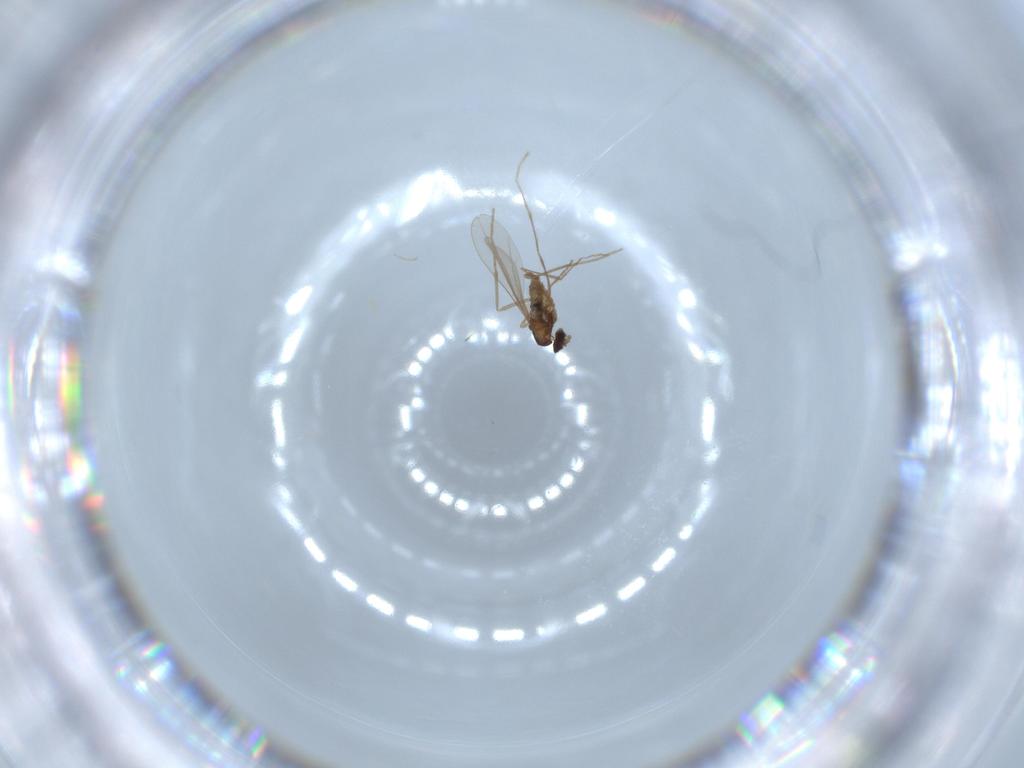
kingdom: Animalia
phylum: Arthropoda
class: Insecta
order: Diptera
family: Cecidomyiidae
